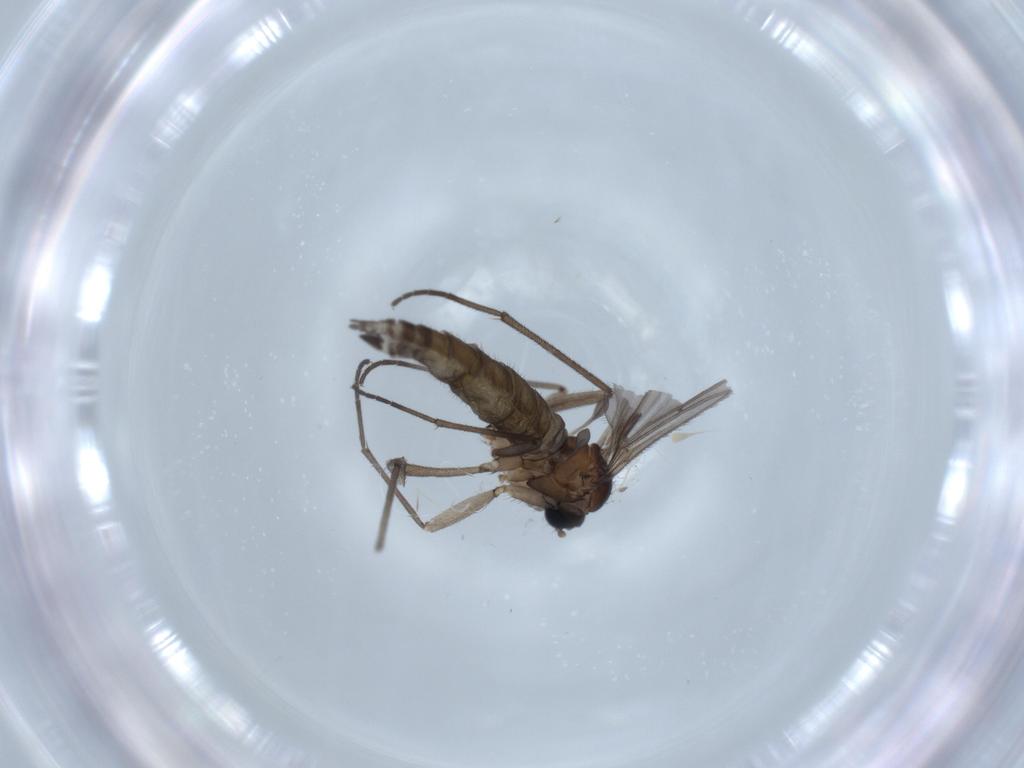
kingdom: Animalia
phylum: Arthropoda
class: Insecta
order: Diptera
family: Sciaridae
